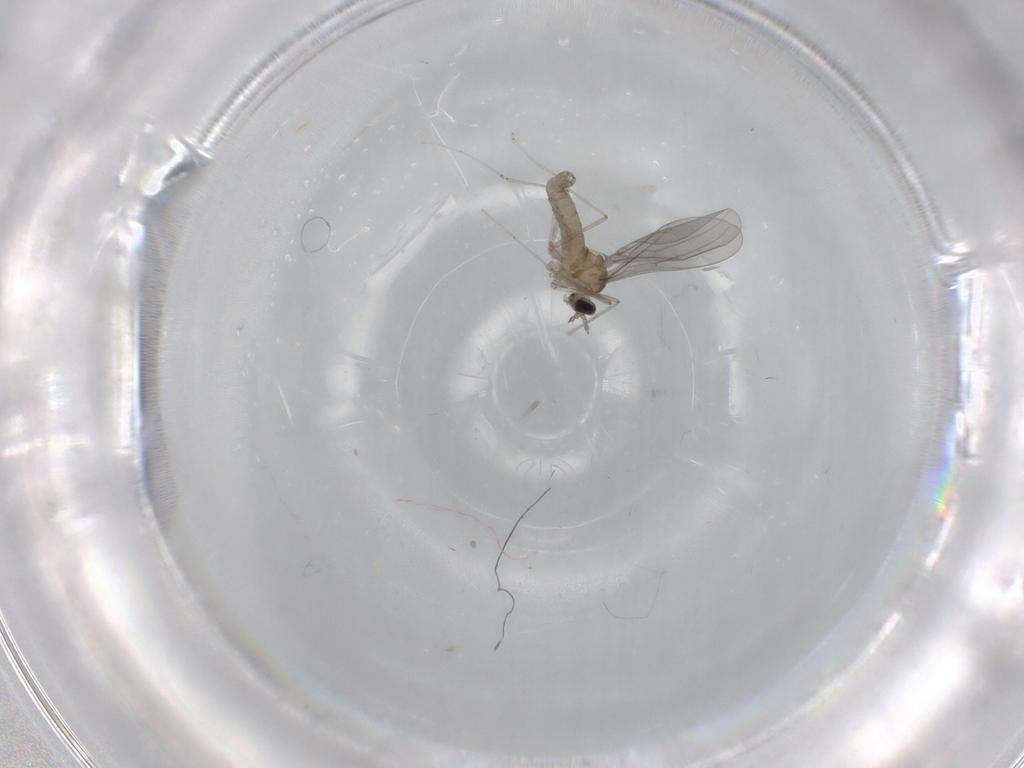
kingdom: Animalia
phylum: Arthropoda
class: Insecta
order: Diptera
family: Cecidomyiidae
